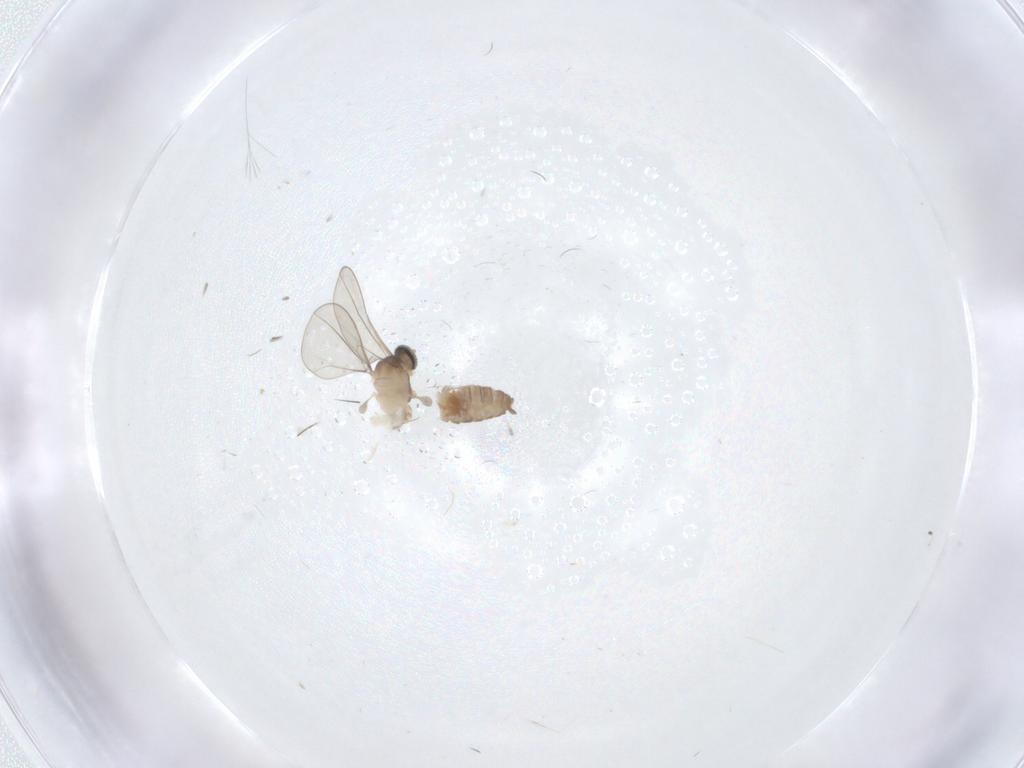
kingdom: Animalia
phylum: Arthropoda
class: Insecta
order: Diptera
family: Cecidomyiidae
